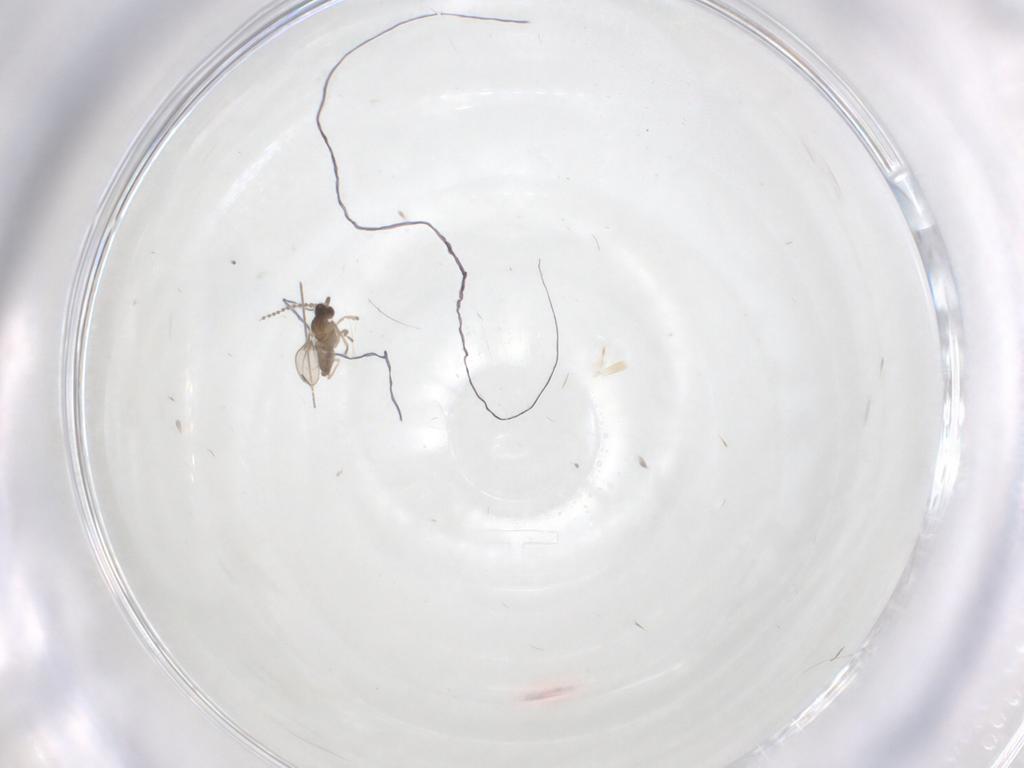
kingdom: Animalia
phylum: Arthropoda
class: Insecta
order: Diptera
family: Cecidomyiidae
